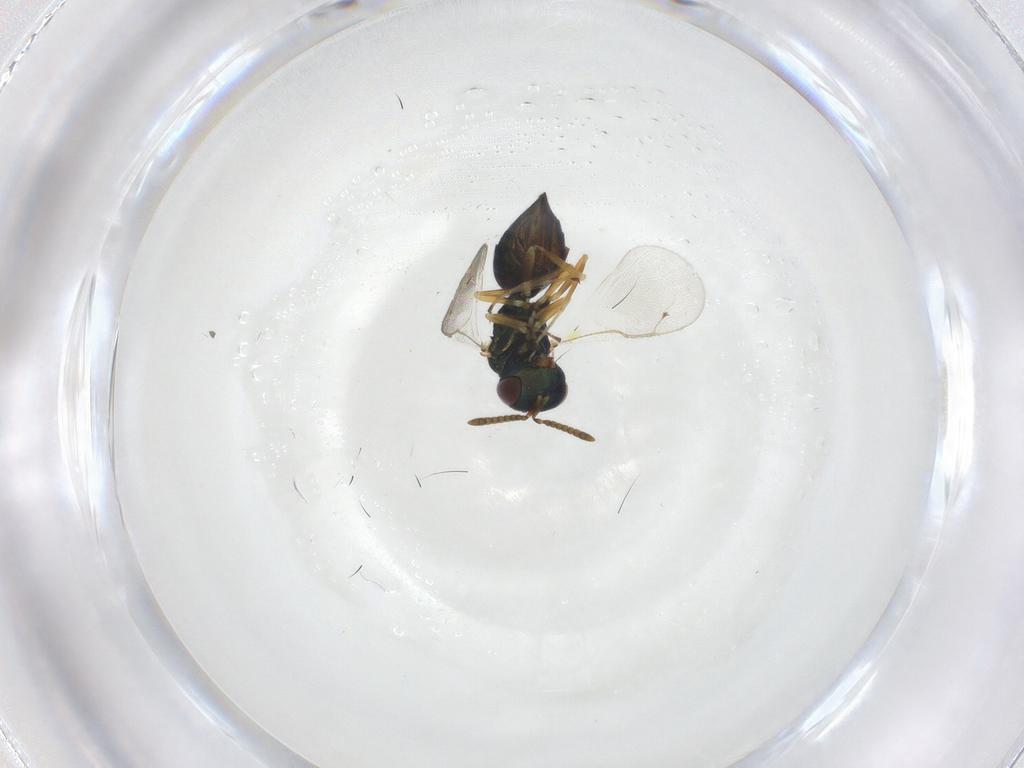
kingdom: Animalia
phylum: Arthropoda
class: Insecta
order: Hymenoptera
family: Pteromalidae
